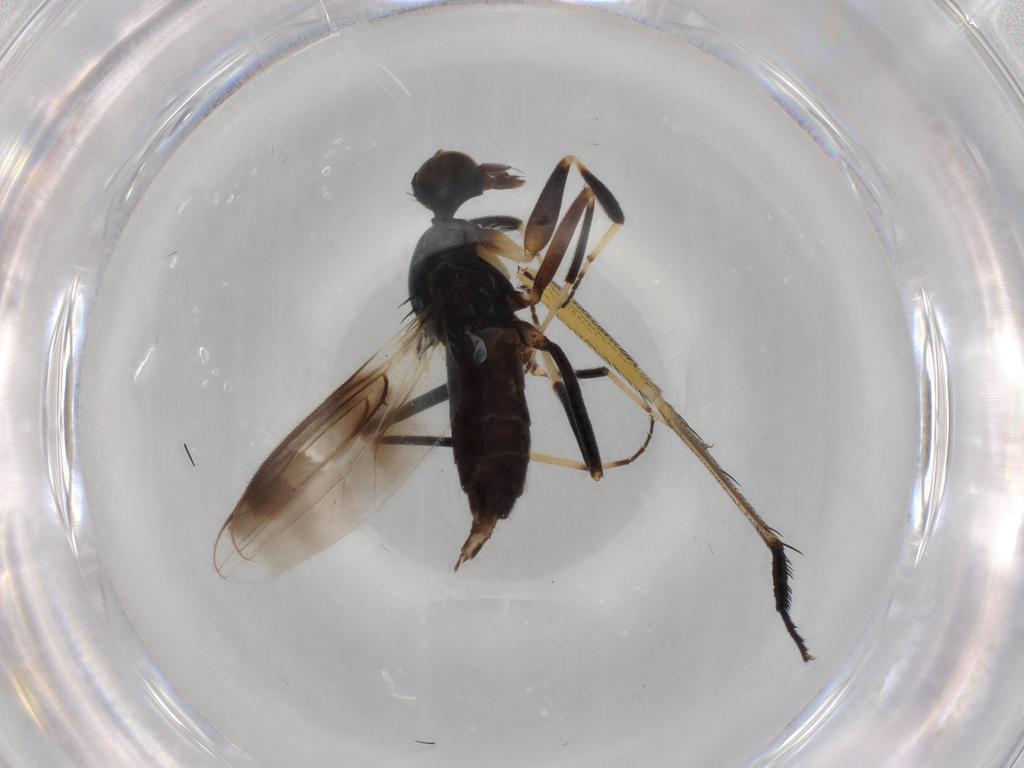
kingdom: Animalia
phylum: Arthropoda
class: Insecta
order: Diptera
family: Hybotidae
